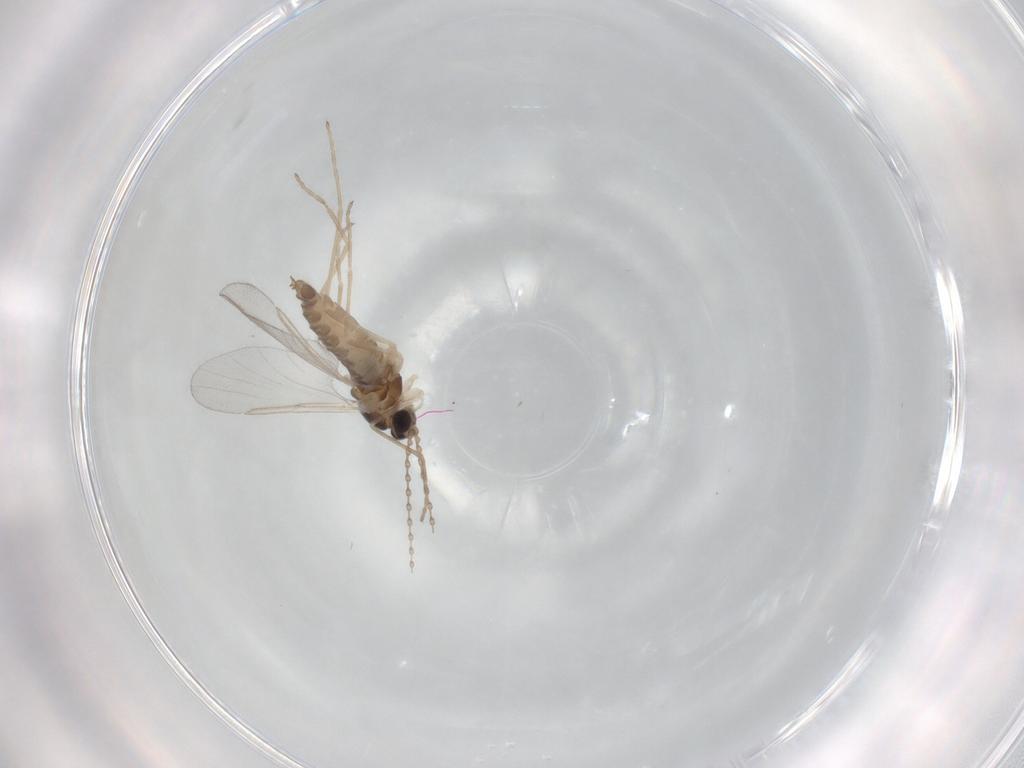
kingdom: Animalia
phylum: Arthropoda
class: Insecta
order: Diptera
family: Cecidomyiidae
